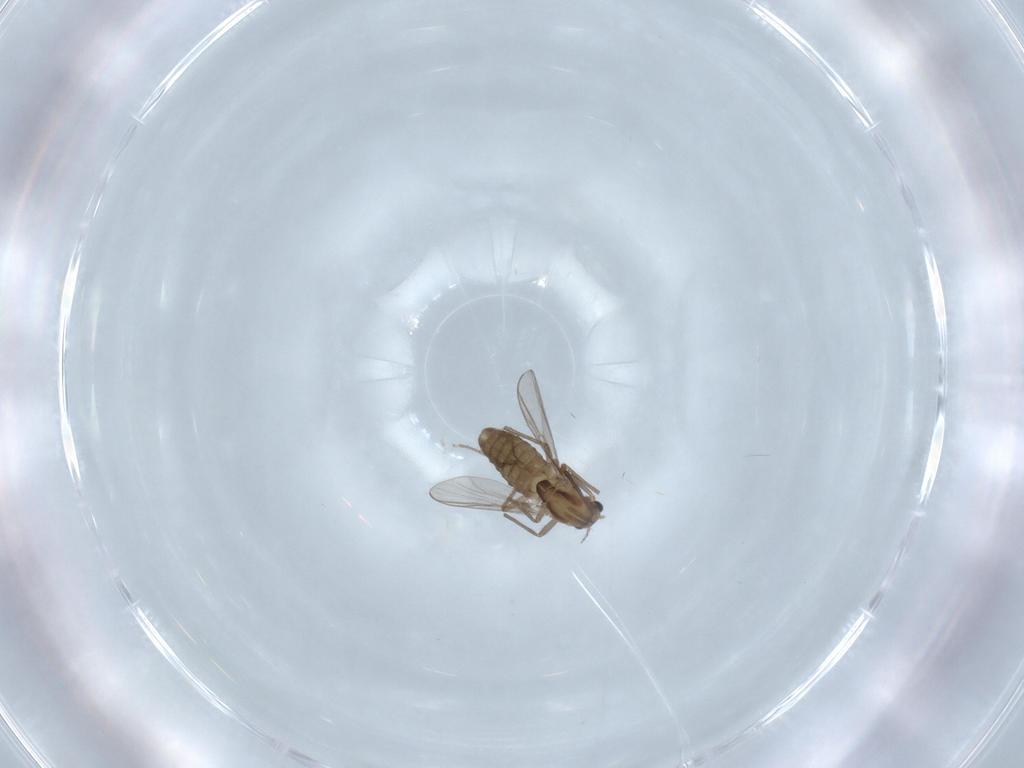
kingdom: Animalia
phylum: Arthropoda
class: Insecta
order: Diptera
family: Chironomidae
